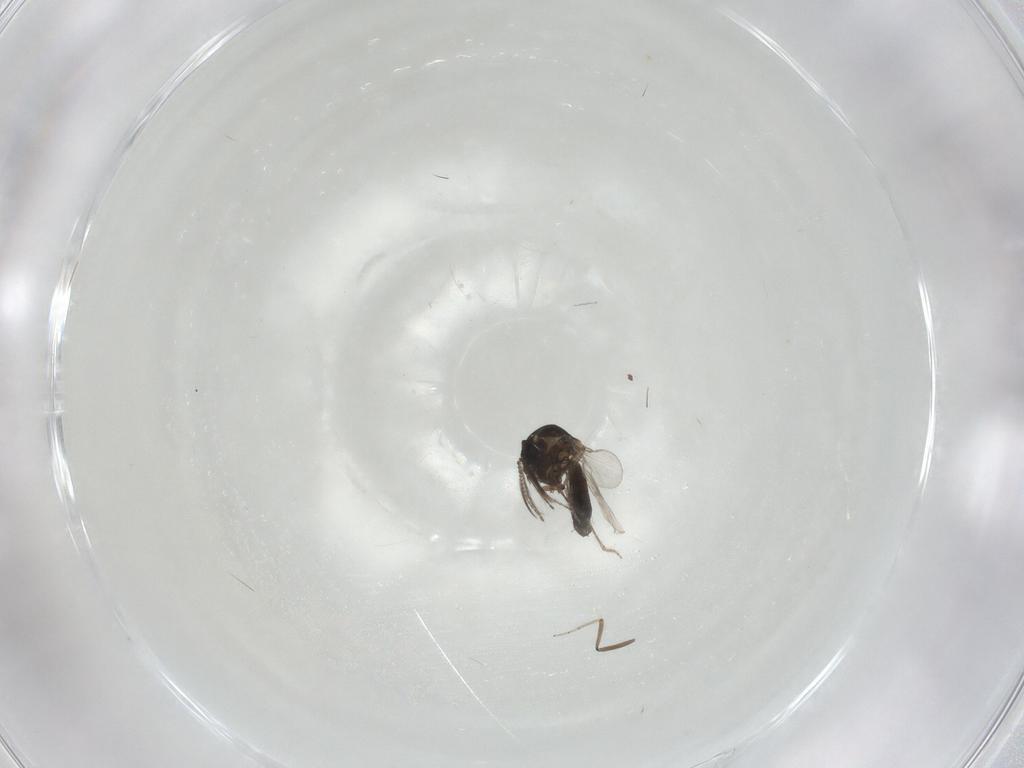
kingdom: Animalia
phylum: Arthropoda
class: Insecta
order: Diptera
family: Ceratopogonidae
